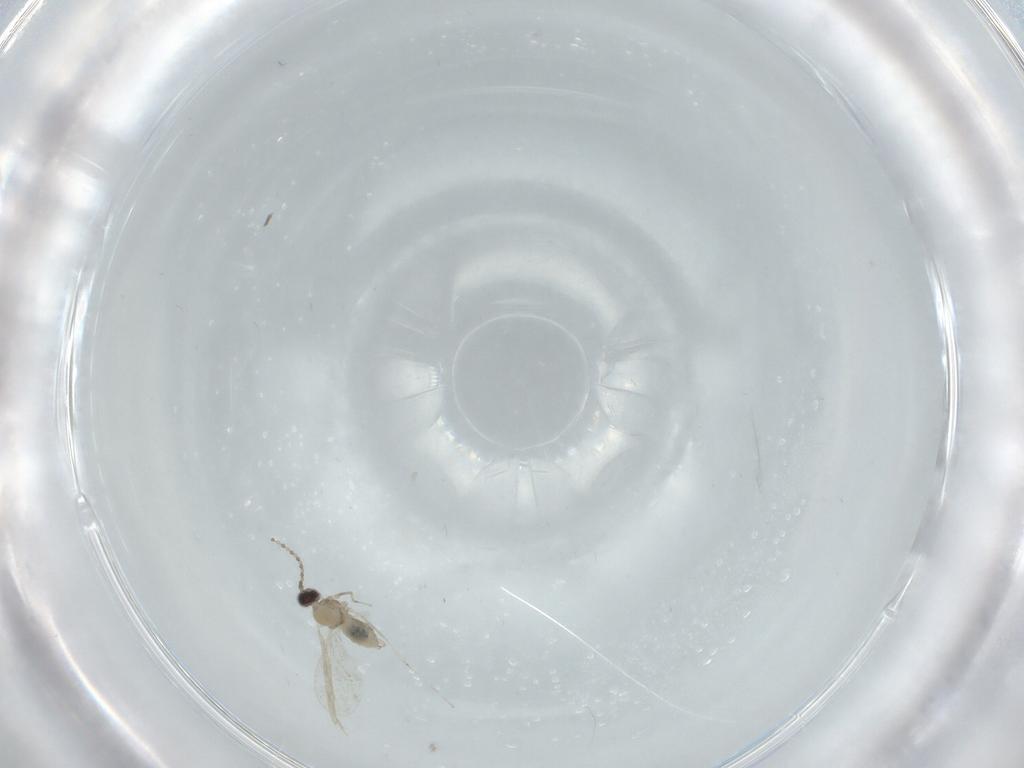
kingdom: Animalia
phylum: Arthropoda
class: Insecta
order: Diptera
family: Cecidomyiidae
